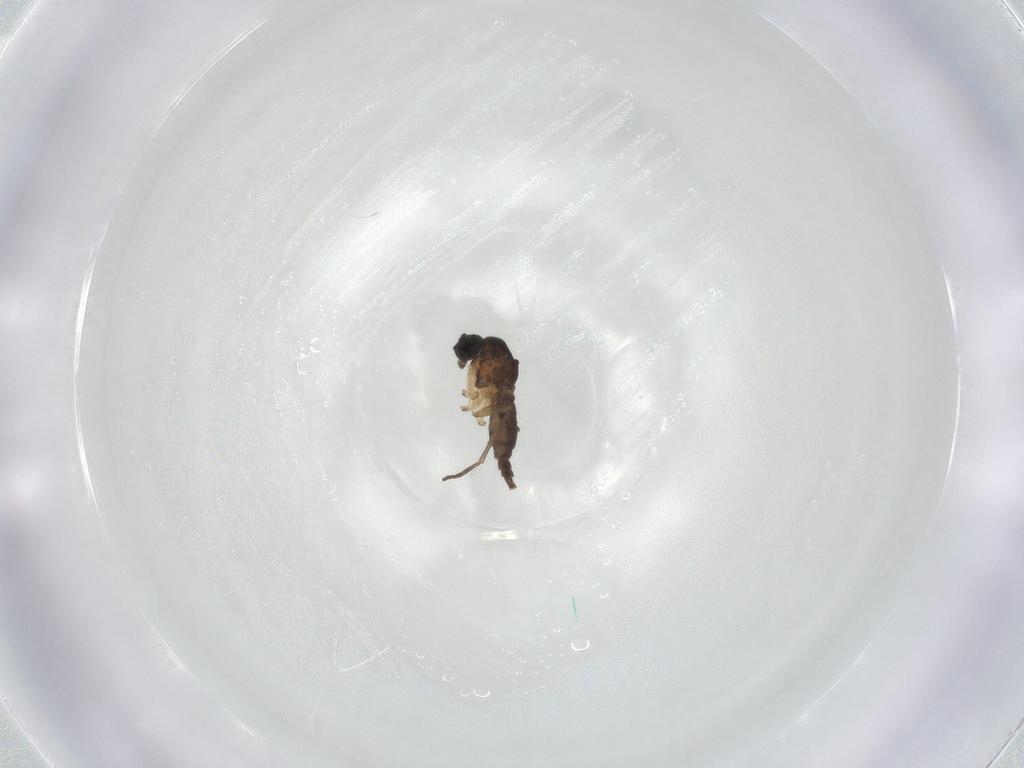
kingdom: Animalia
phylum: Arthropoda
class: Insecta
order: Diptera
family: Sciaridae
